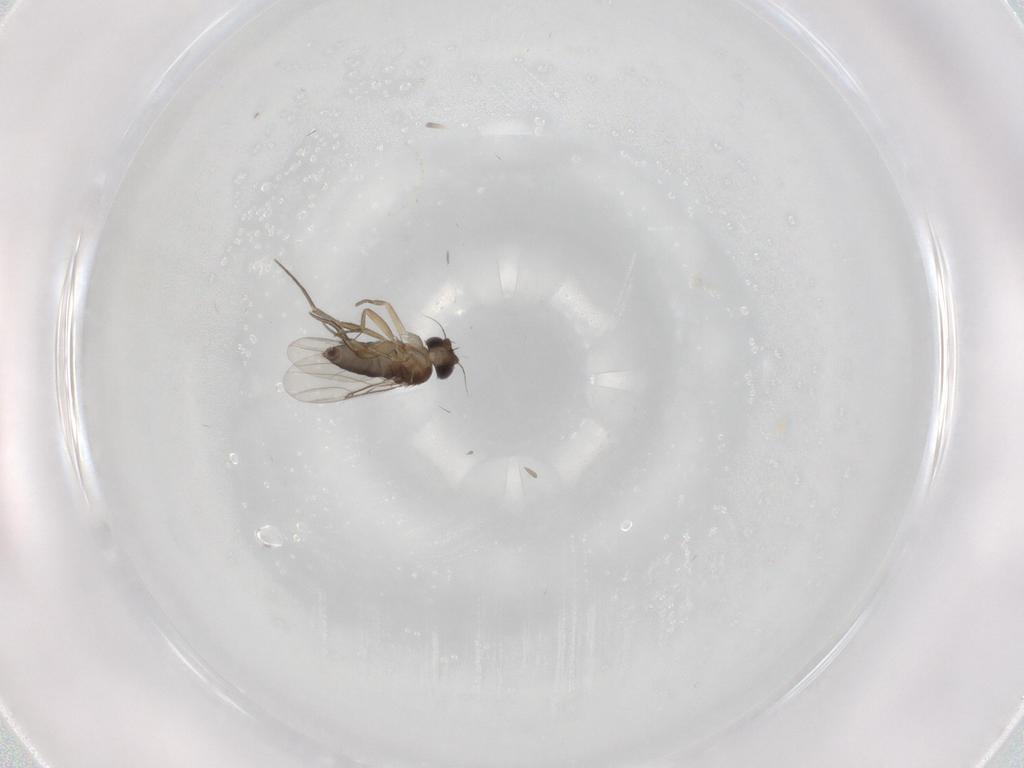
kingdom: Animalia
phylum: Arthropoda
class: Insecta
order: Diptera
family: Phoridae
